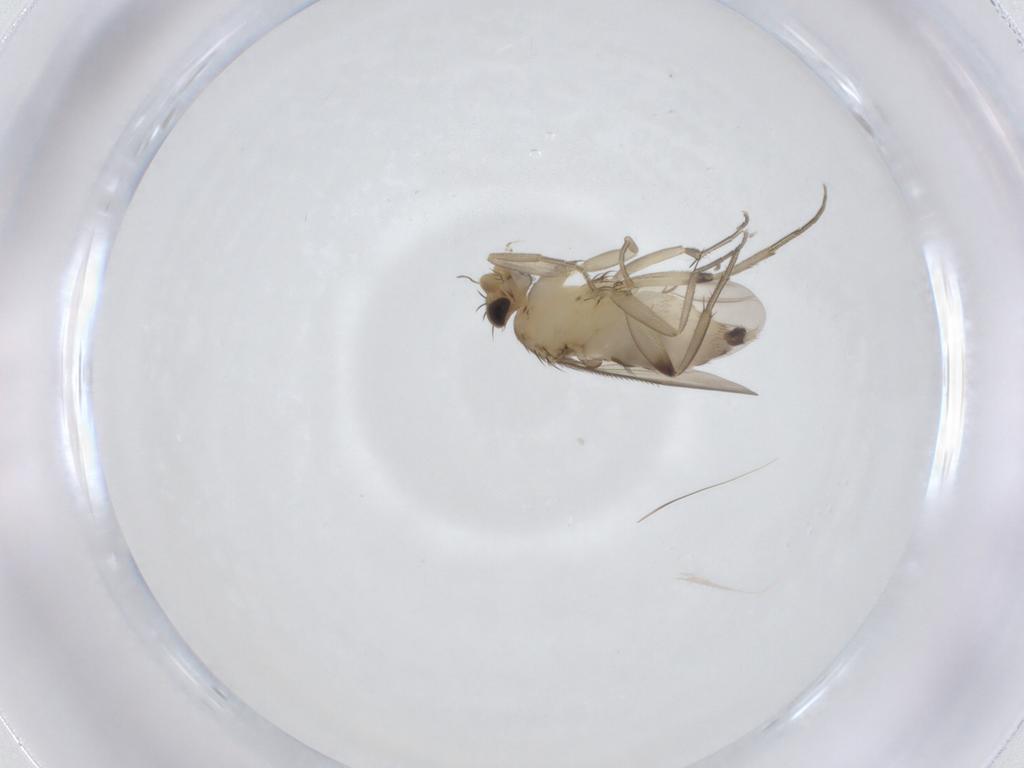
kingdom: Animalia
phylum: Arthropoda
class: Insecta
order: Diptera
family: Phoridae
